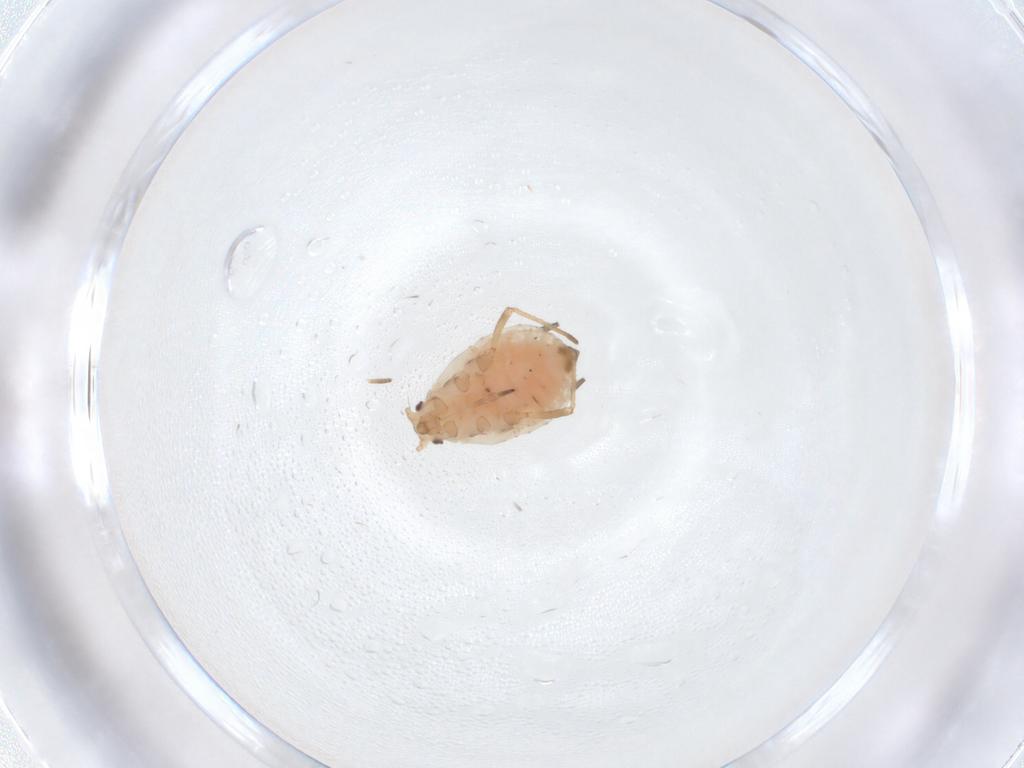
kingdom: Animalia
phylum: Arthropoda
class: Insecta
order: Hemiptera
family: Aphididae
